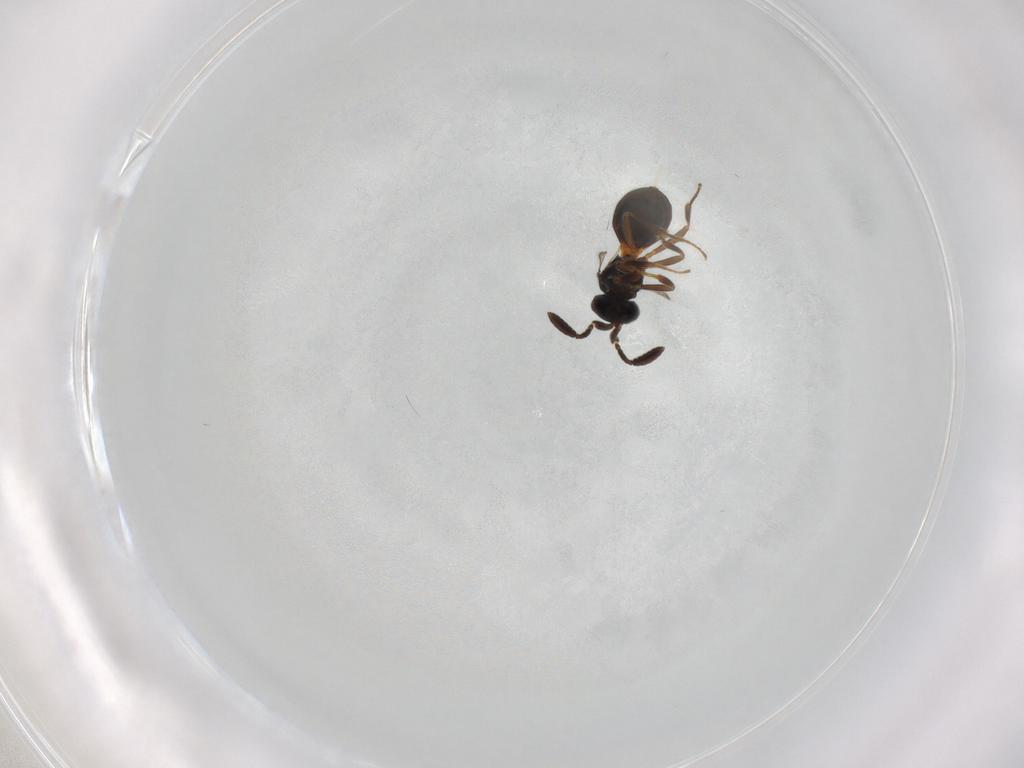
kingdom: Animalia
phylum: Arthropoda
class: Insecta
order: Hymenoptera
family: Scelionidae
